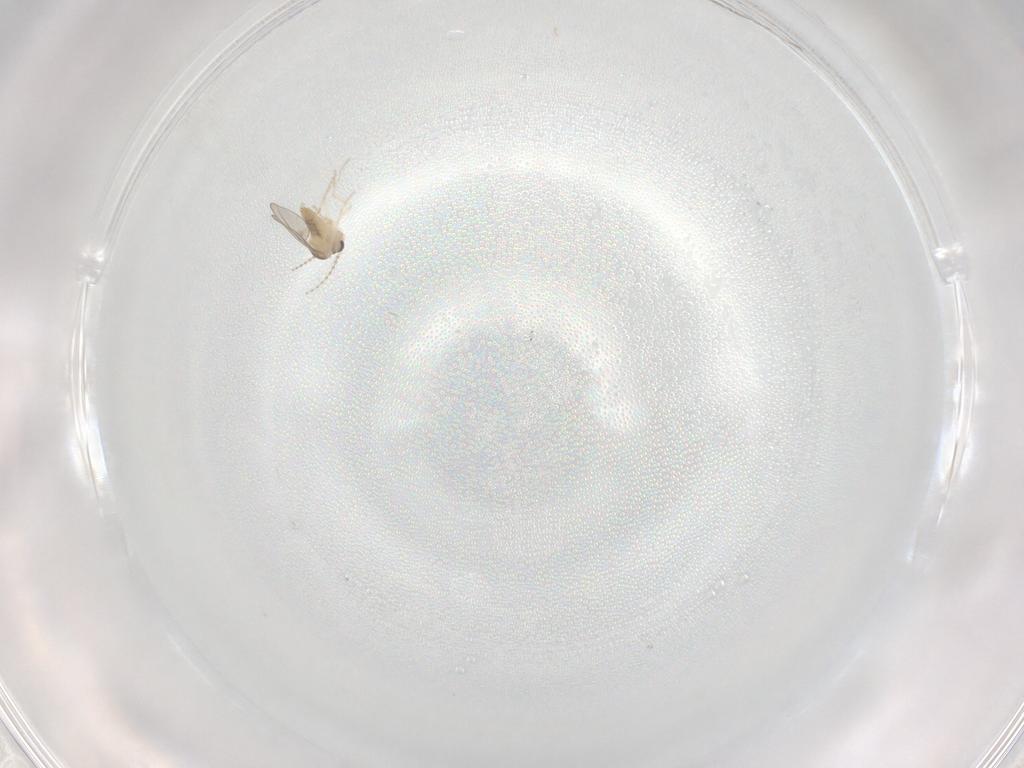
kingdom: Animalia
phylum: Arthropoda
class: Insecta
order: Diptera
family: Cecidomyiidae
